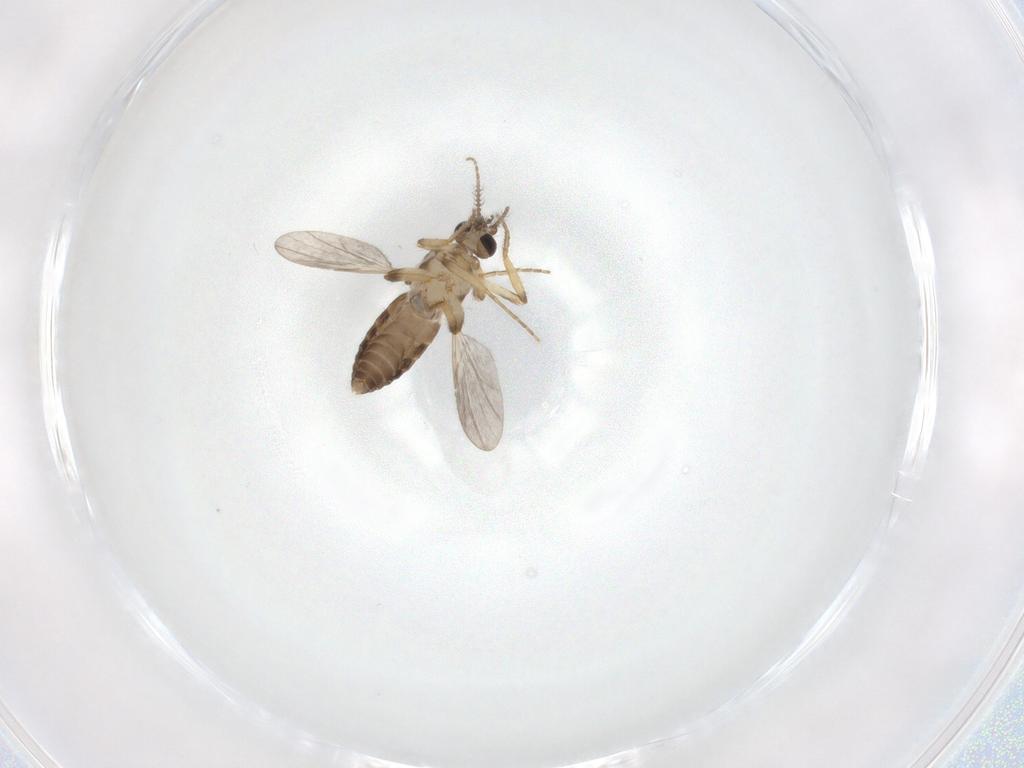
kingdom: Animalia
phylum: Arthropoda
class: Insecta
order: Diptera
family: Ceratopogonidae
